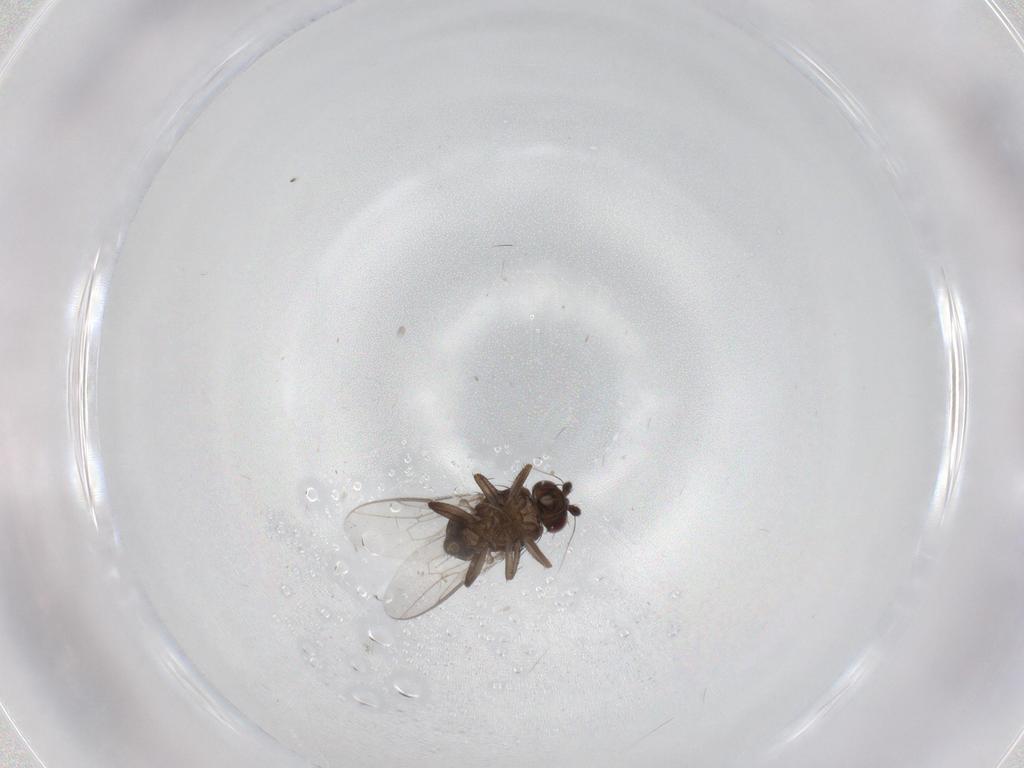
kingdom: Animalia
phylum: Arthropoda
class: Insecta
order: Diptera
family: Sphaeroceridae
